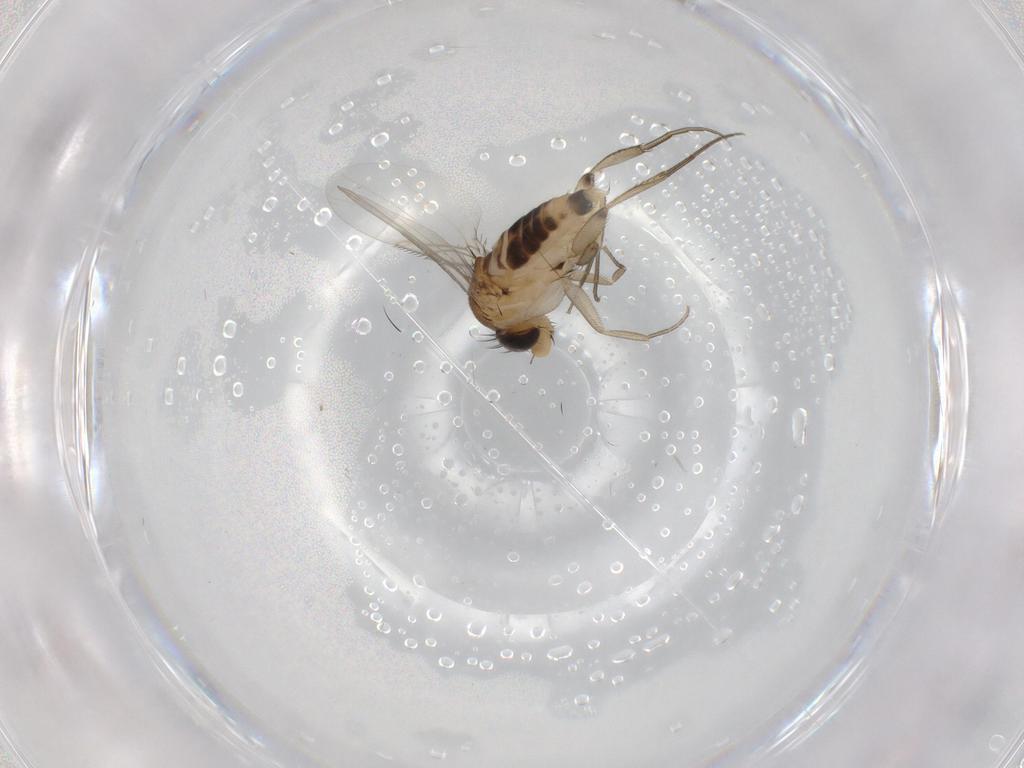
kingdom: Animalia
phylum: Arthropoda
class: Insecta
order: Diptera
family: Phoridae
